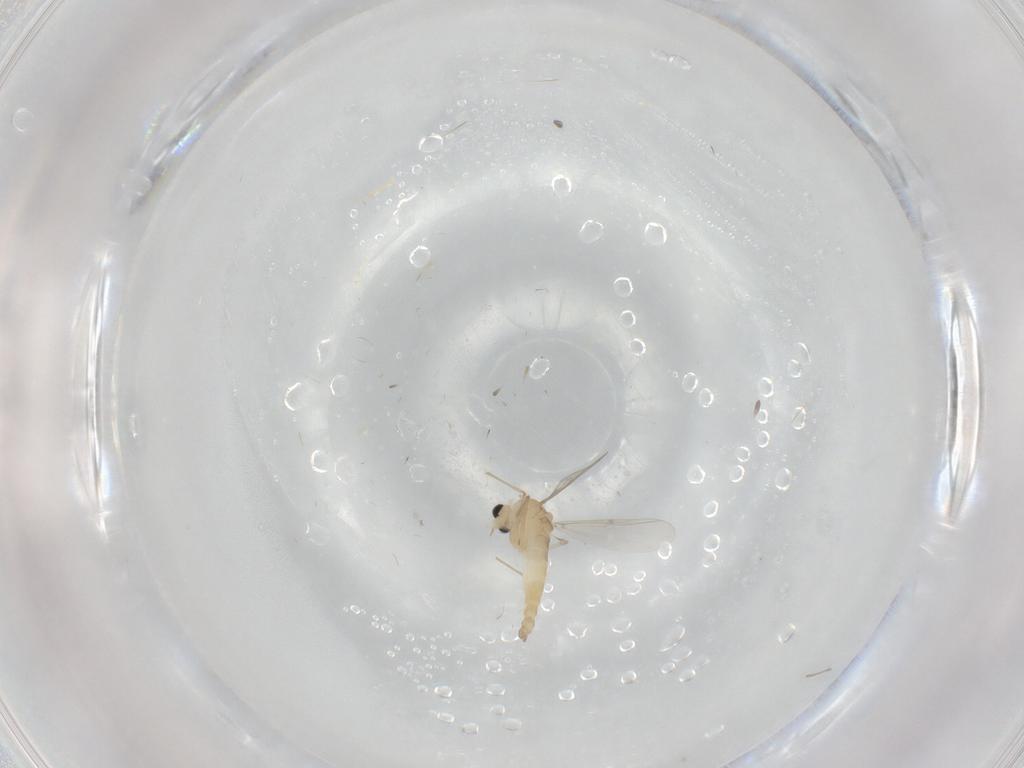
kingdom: Animalia
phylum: Arthropoda
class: Insecta
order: Diptera
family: Chironomidae
